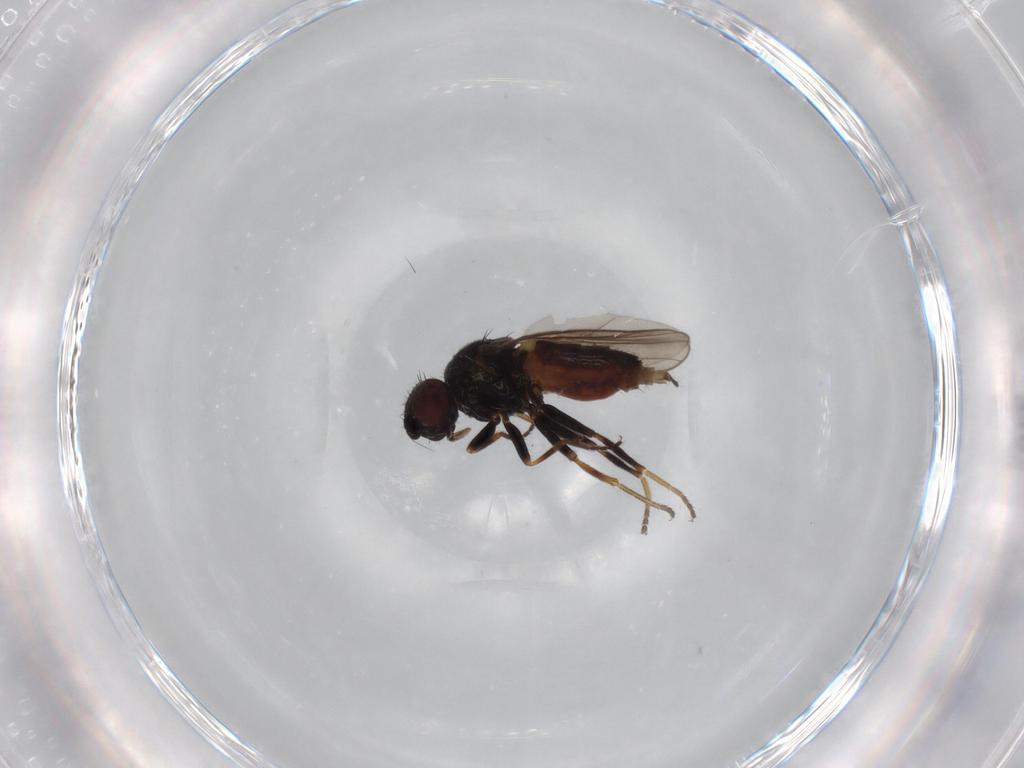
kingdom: Animalia
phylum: Arthropoda
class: Insecta
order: Diptera
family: Chloropidae
